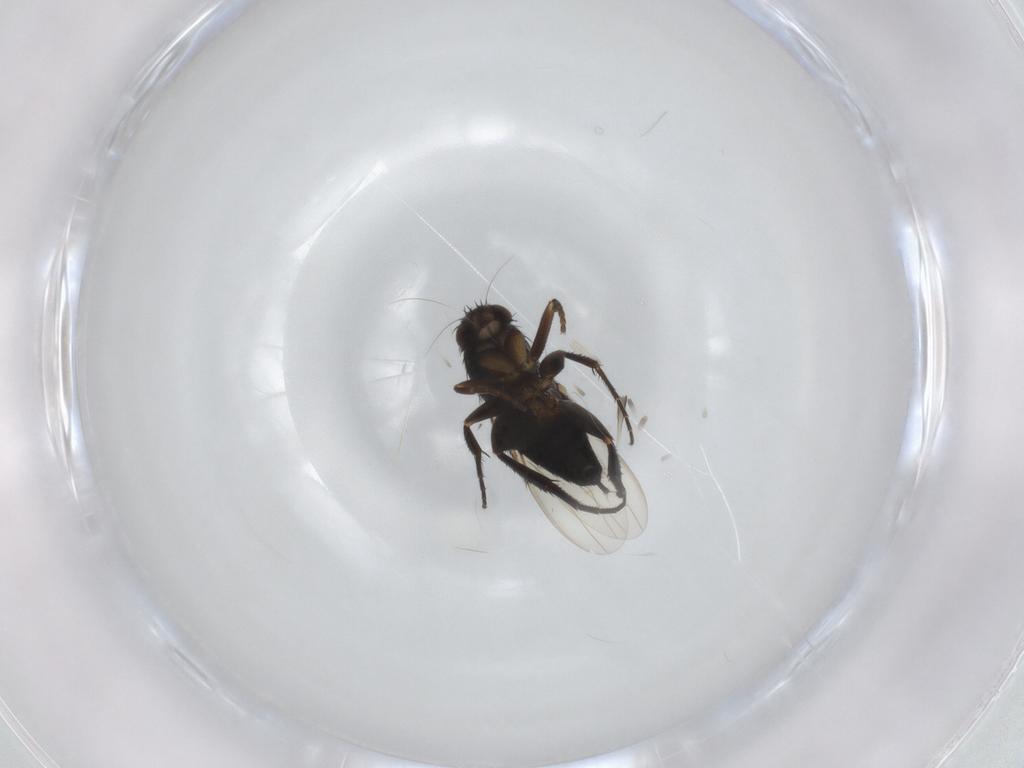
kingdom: Animalia
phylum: Arthropoda
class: Insecta
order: Diptera
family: Phoridae
